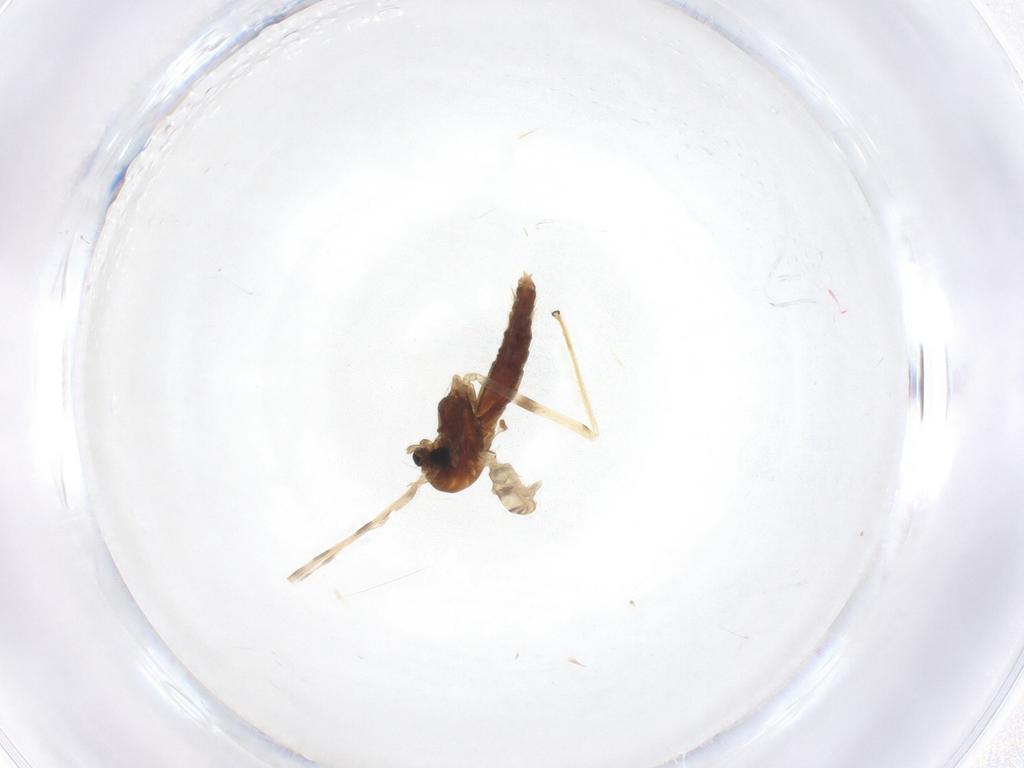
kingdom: Animalia
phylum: Arthropoda
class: Insecta
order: Diptera
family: Chironomidae
